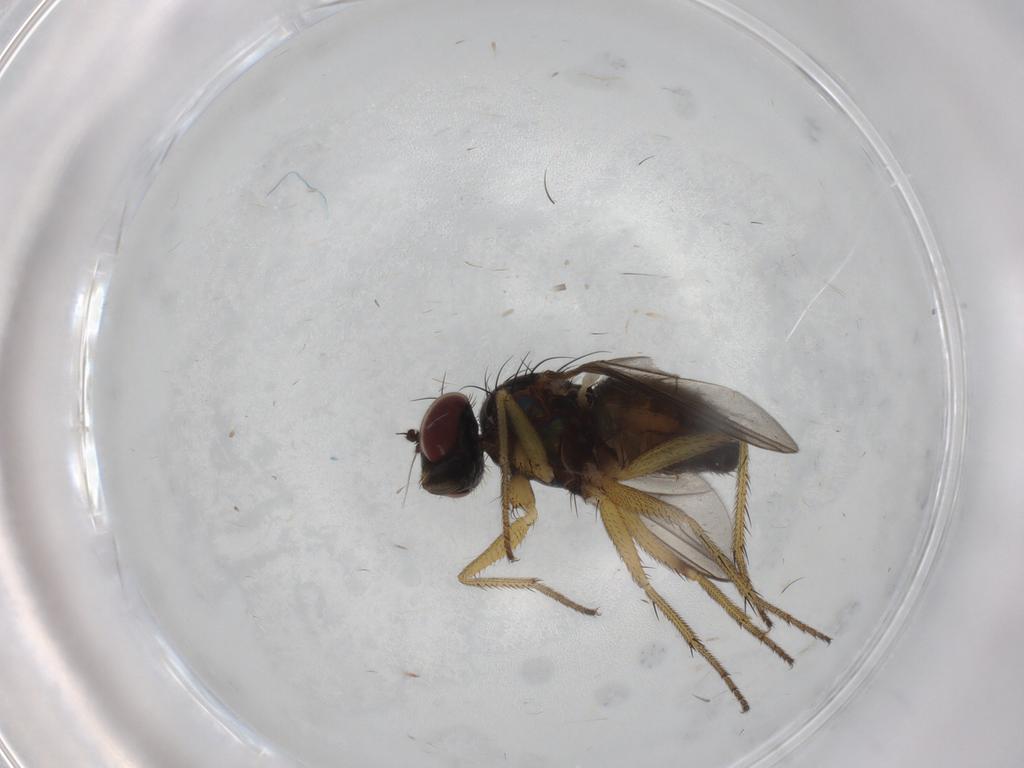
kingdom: Animalia
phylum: Arthropoda
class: Insecta
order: Diptera
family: Dolichopodidae
